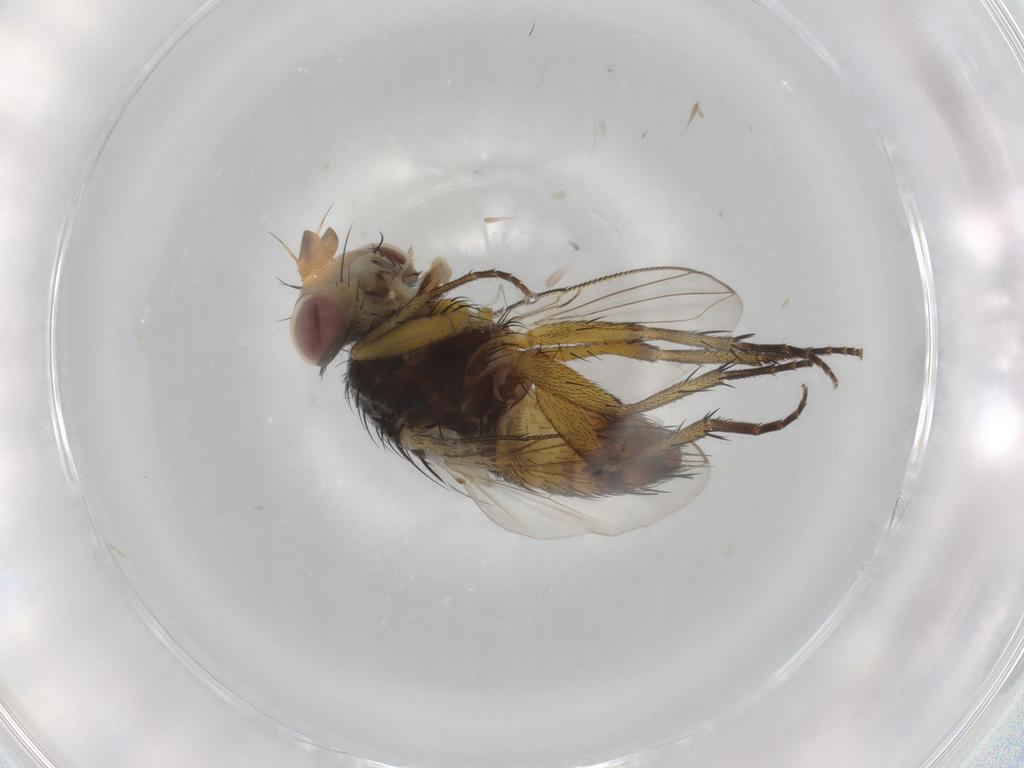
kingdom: Animalia
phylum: Arthropoda
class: Insecta
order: Diptera
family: Tachinidae
